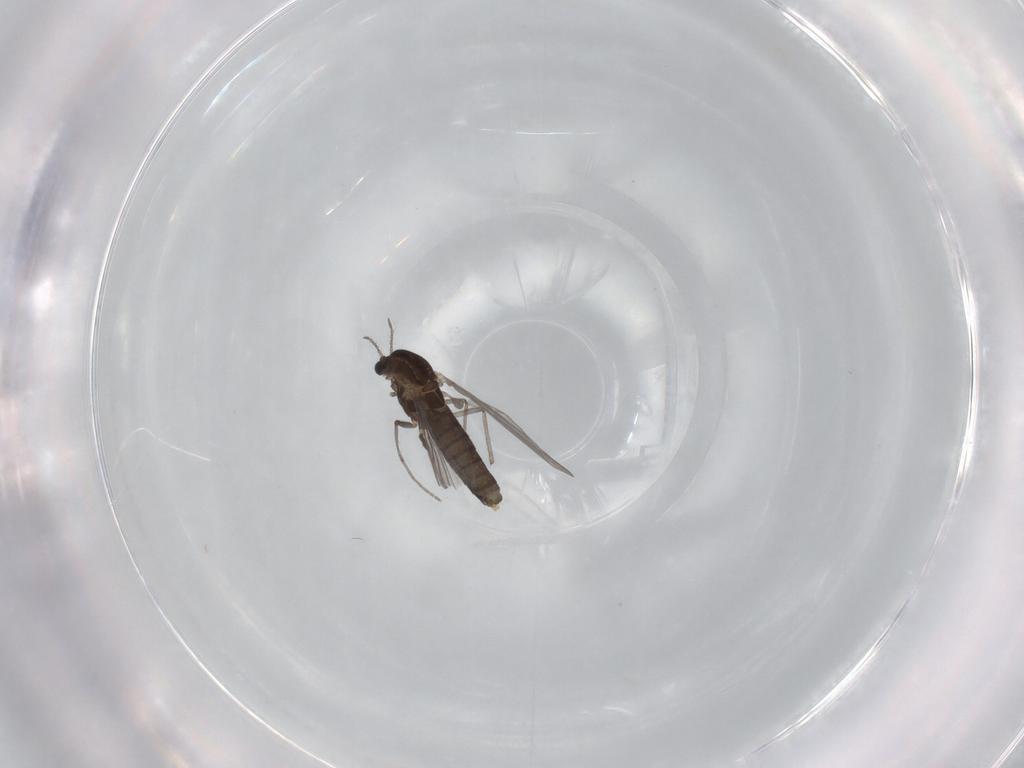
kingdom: Animalia
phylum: Arthropoda
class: Insecta
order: Diptera
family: Chironomidae
